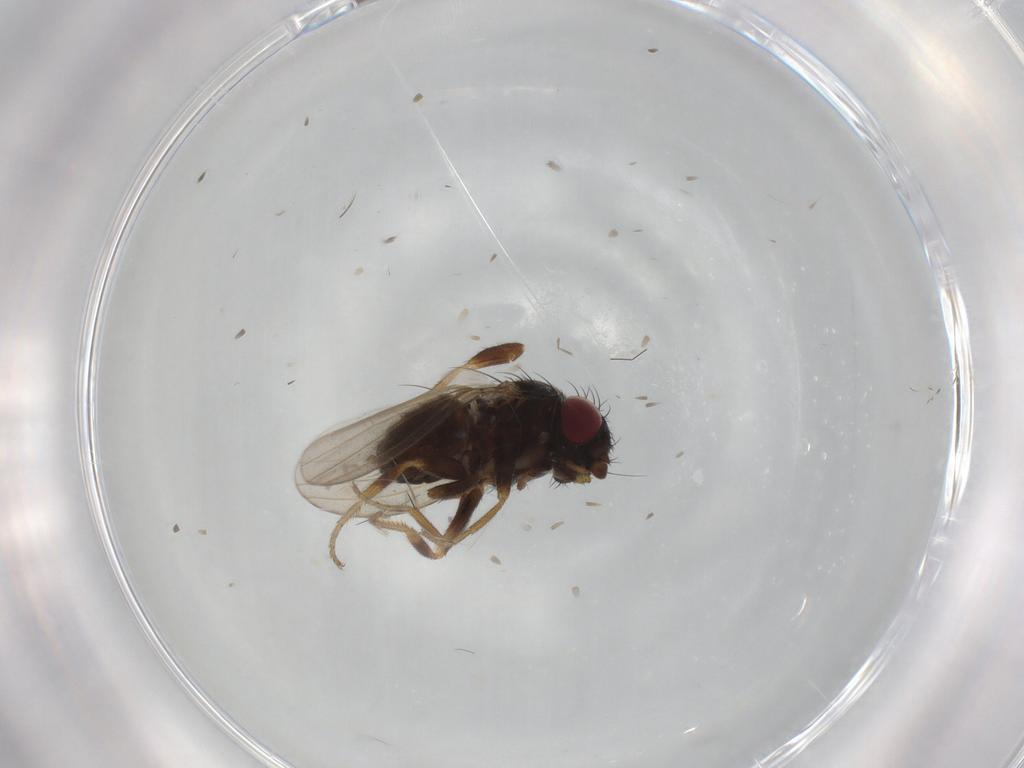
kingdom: Animalia
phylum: Arthropoda
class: Insecta
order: Diptera
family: Milichiidae
